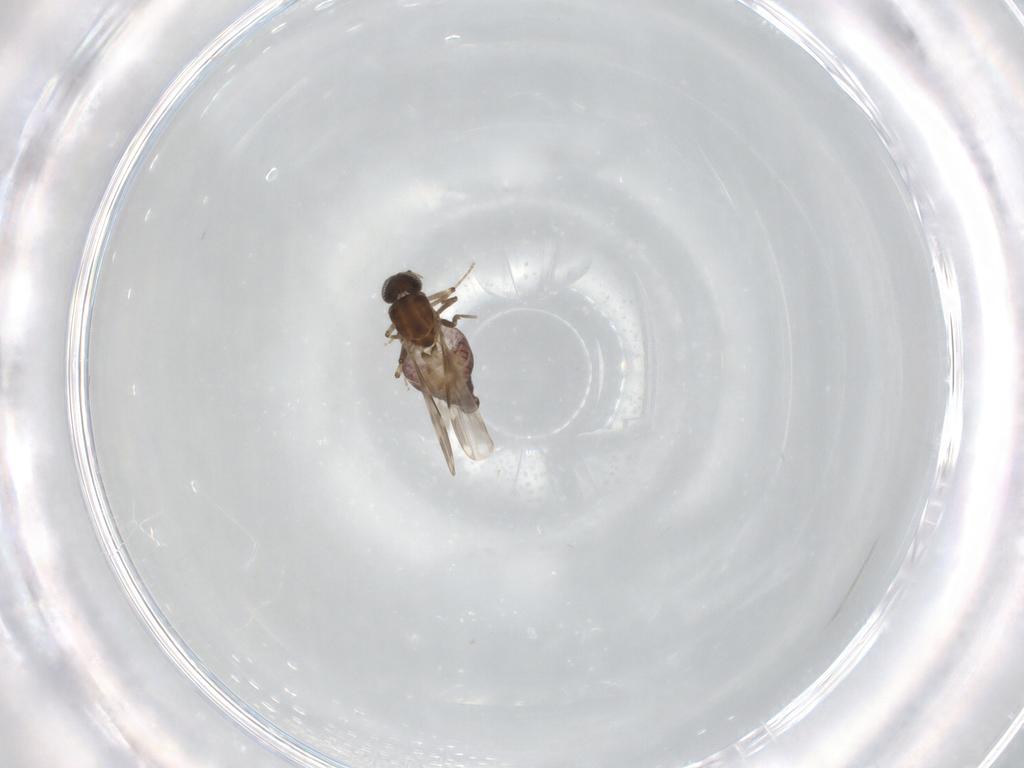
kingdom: Animalia
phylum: Arthropoda
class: Insecta
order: Diptera
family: Ceratopogonidae
